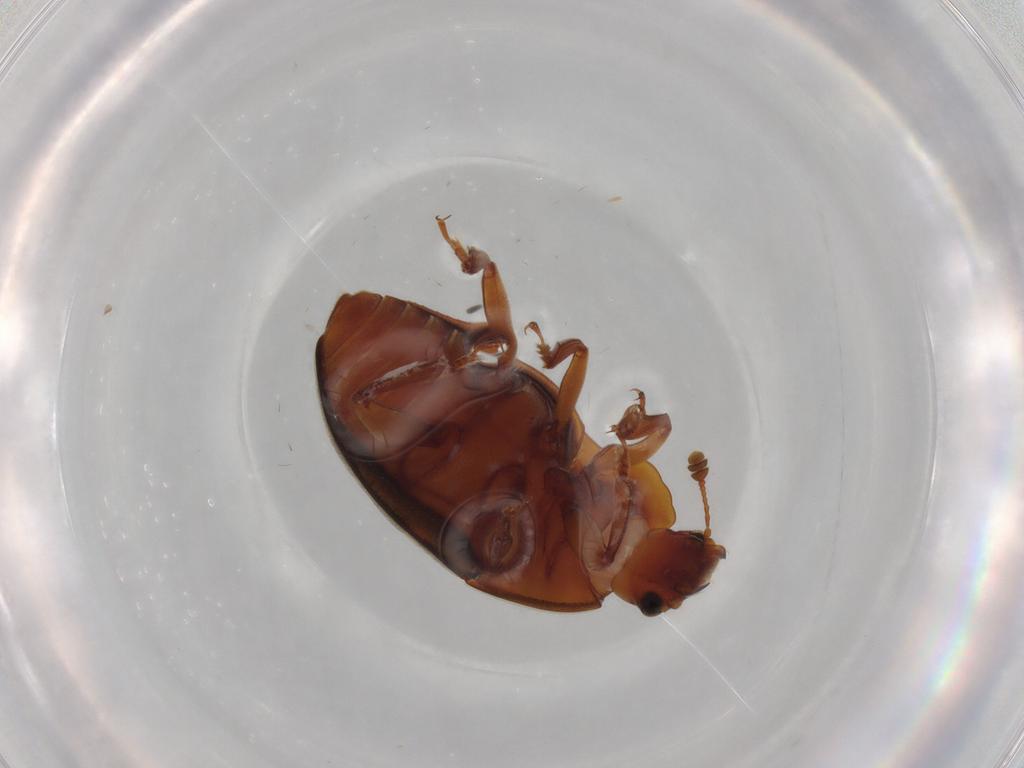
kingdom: Animalia
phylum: Arthropoda
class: Insecta
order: Coleoptera
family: Nitidulidae
